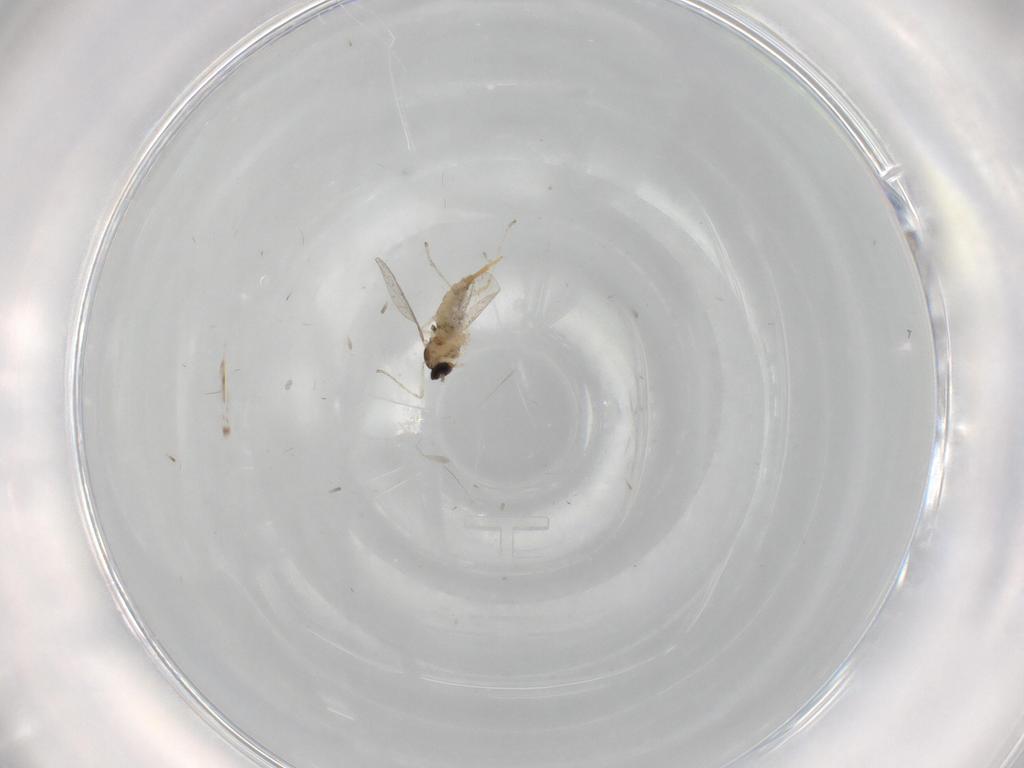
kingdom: Animalia
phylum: Arthropoda
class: Insecta
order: Diptera
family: Cecidomyiidae
